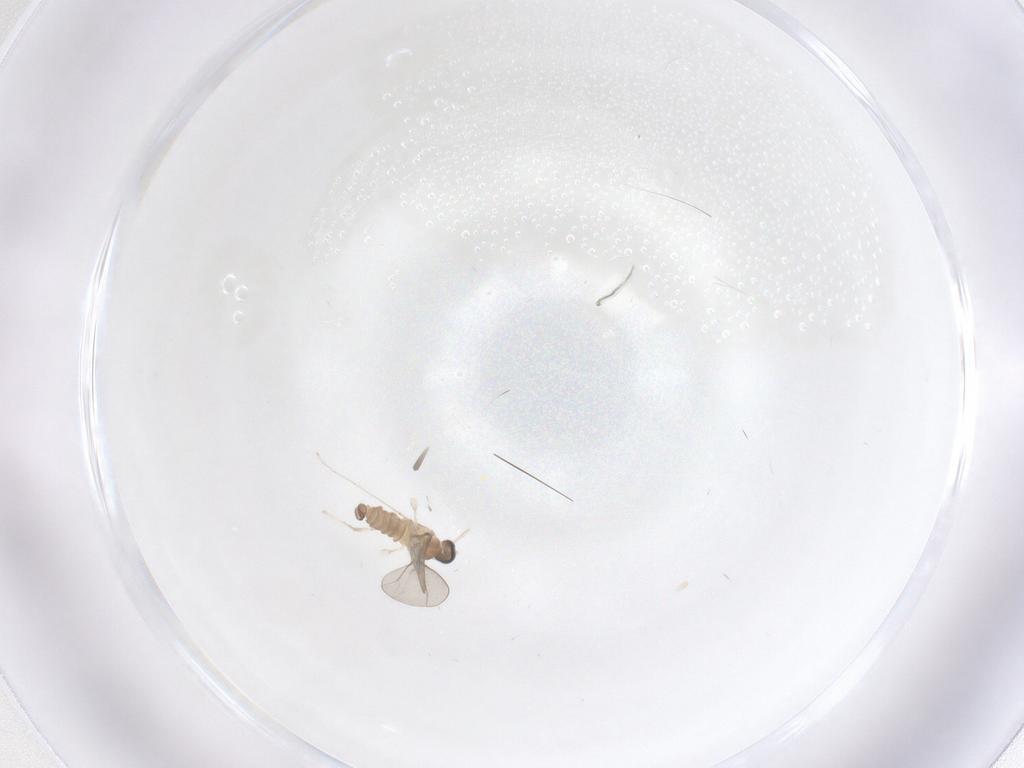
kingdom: Animalia
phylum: Arthropoda
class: Insecta
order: Diptera
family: Cecidomyiidae
